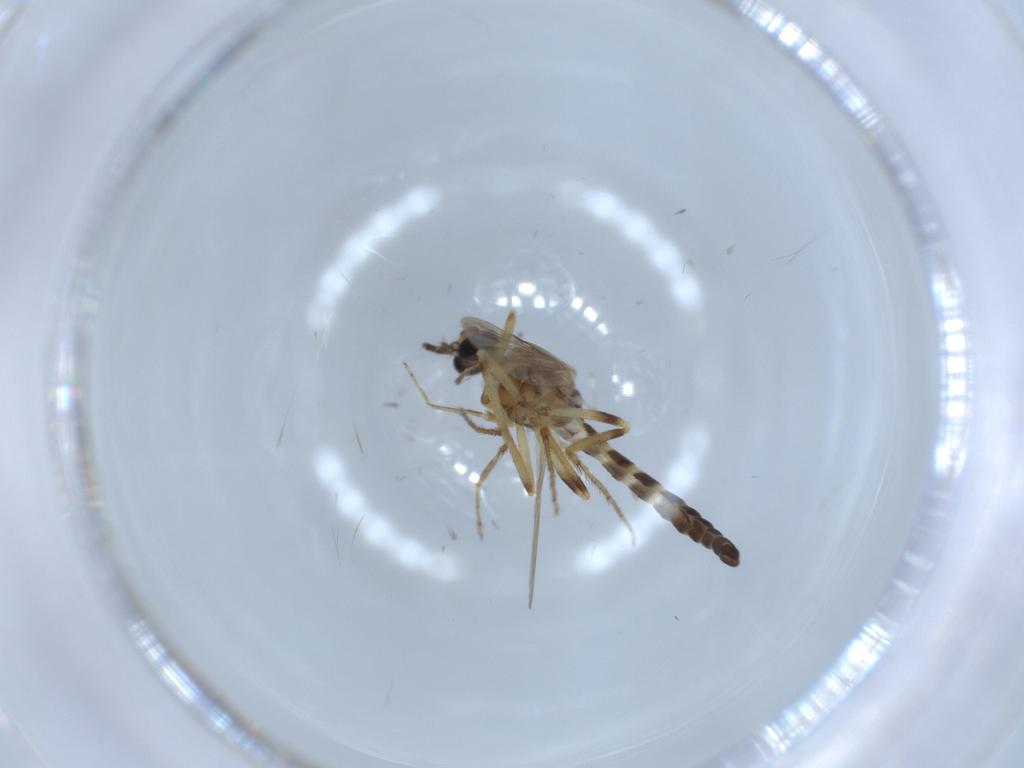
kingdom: Animalia
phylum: Arthropoda
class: Insecta
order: Diptera
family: Ceratopogonidae
